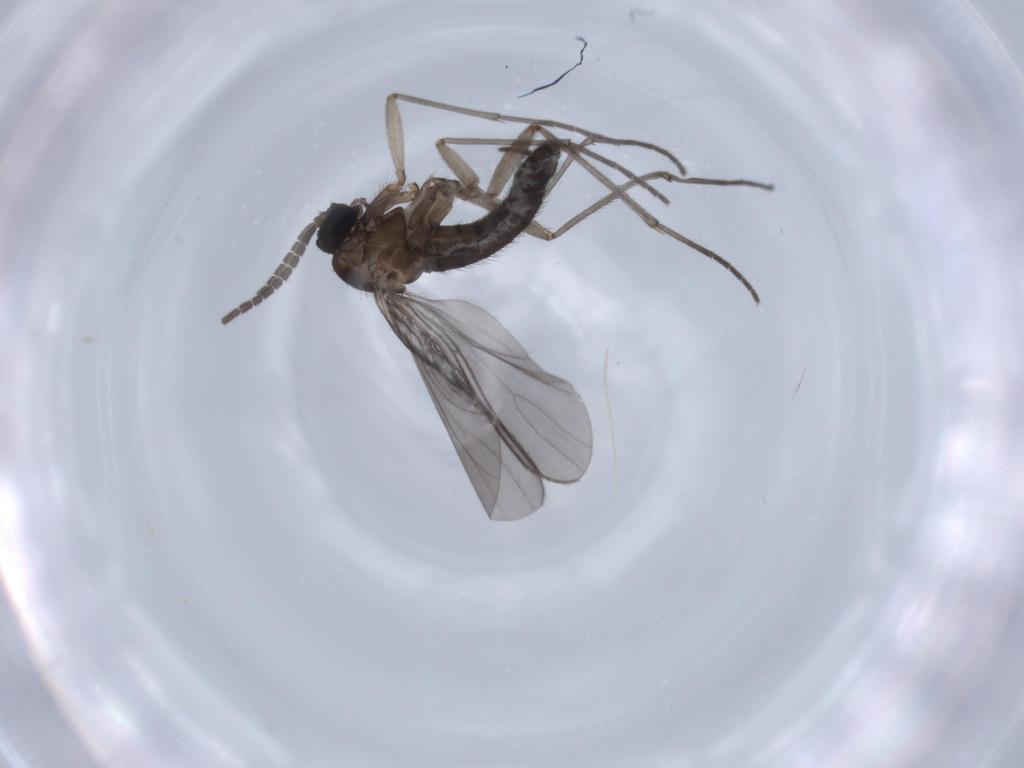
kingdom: Animalia
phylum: Arthropoda
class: Insecta
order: Diptera
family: Sciaridae
